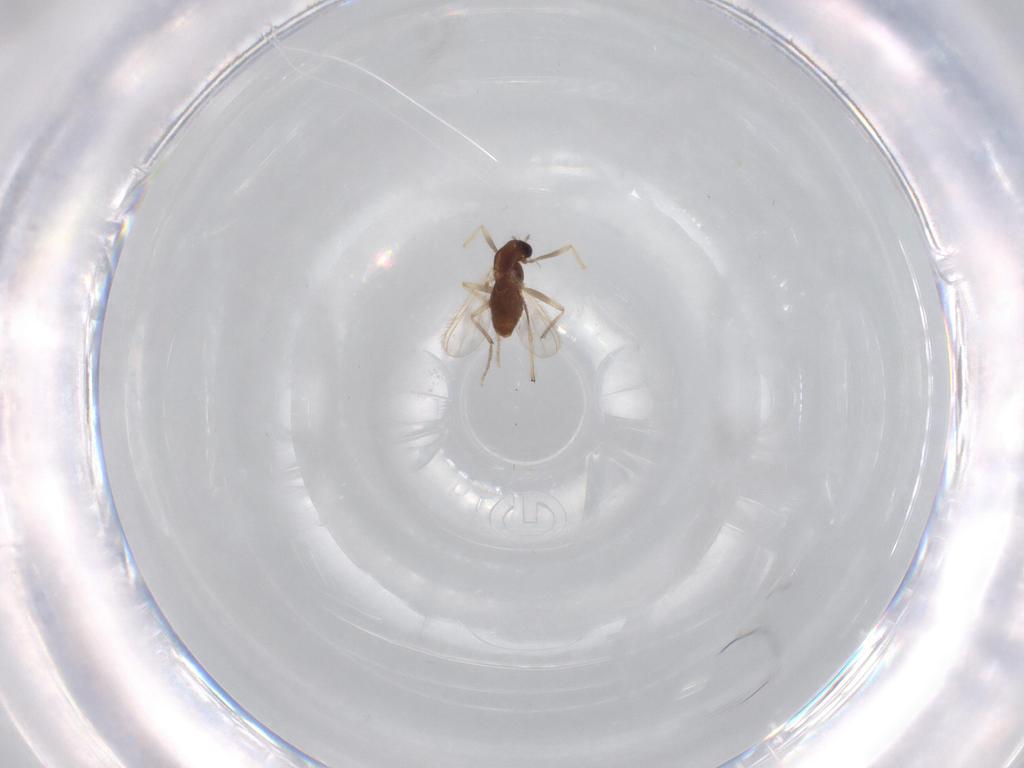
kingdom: Animalia
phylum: Arthropoda
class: Insecta
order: Diptera
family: Chironomidae
